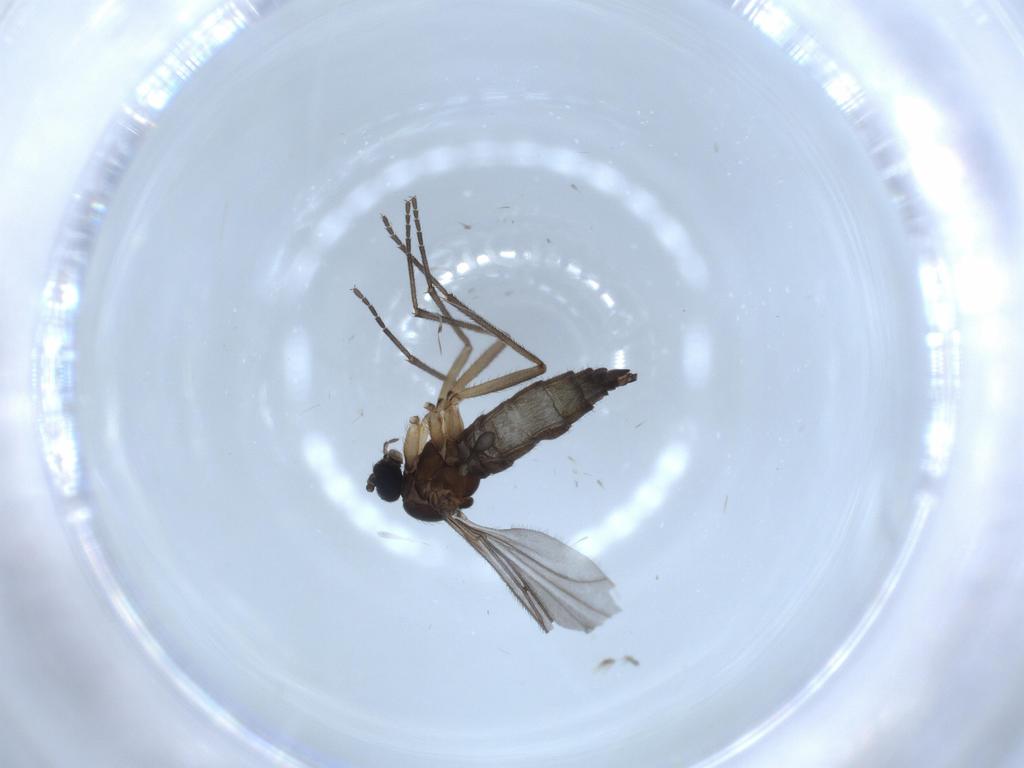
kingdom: Animalia
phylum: Arthropoda
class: Insecta
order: Diptera
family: Sciaridae
